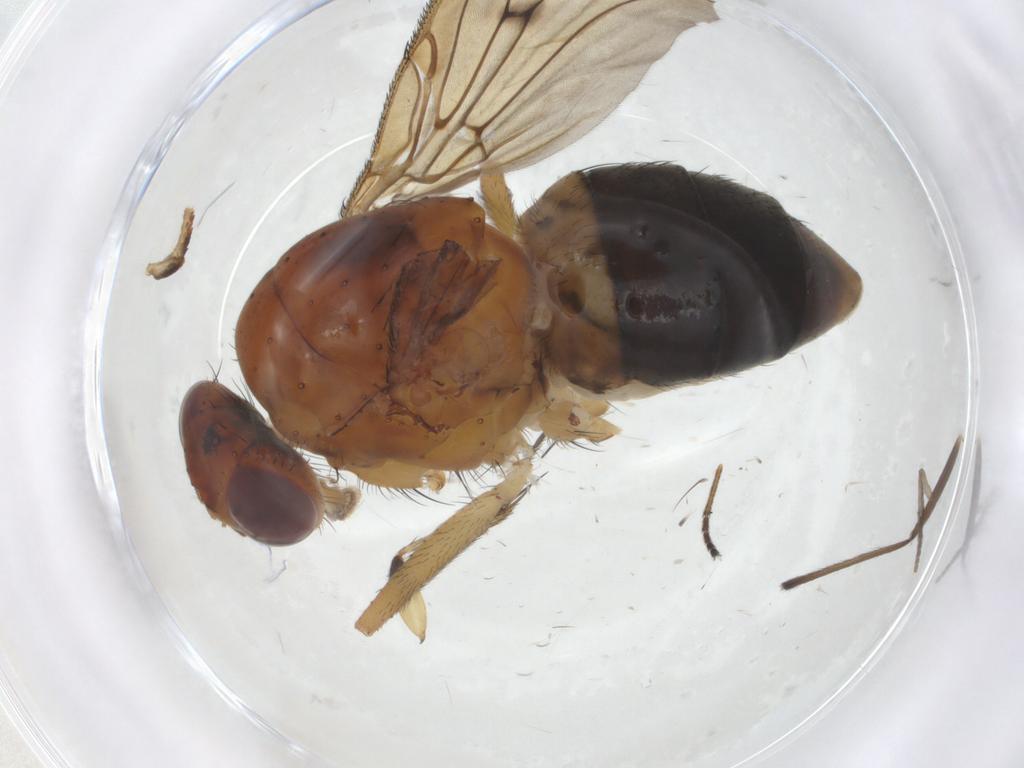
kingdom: Animalia
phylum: Arthropoda
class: Insecta
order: Diptera
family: Psychodidae
